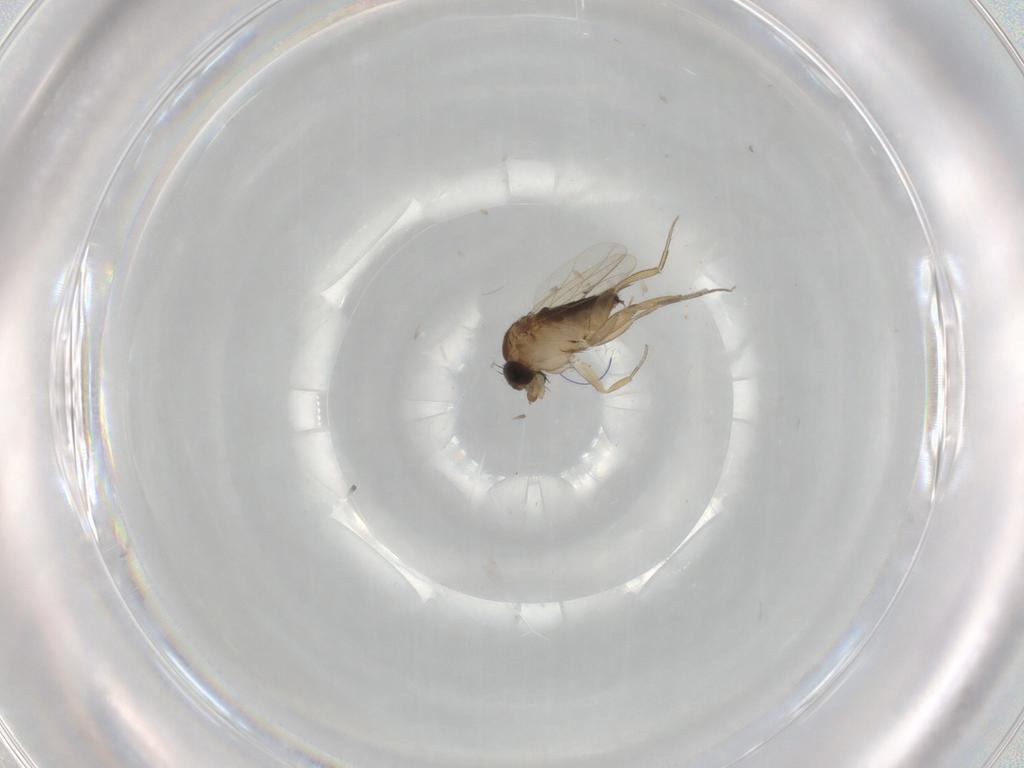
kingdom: Animalia
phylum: Arthropoda
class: Insecta
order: Diptera
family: Phoridae
